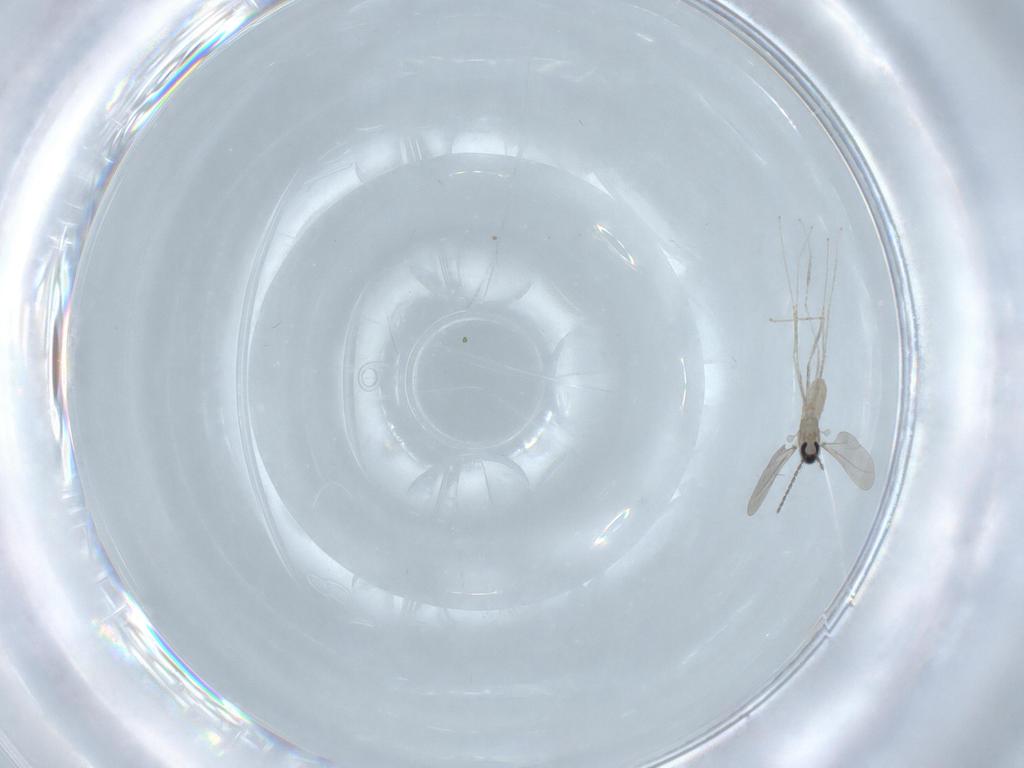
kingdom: Animalia
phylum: Arthropoda
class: Insecta
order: Diptera
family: Cecidomyiidae
